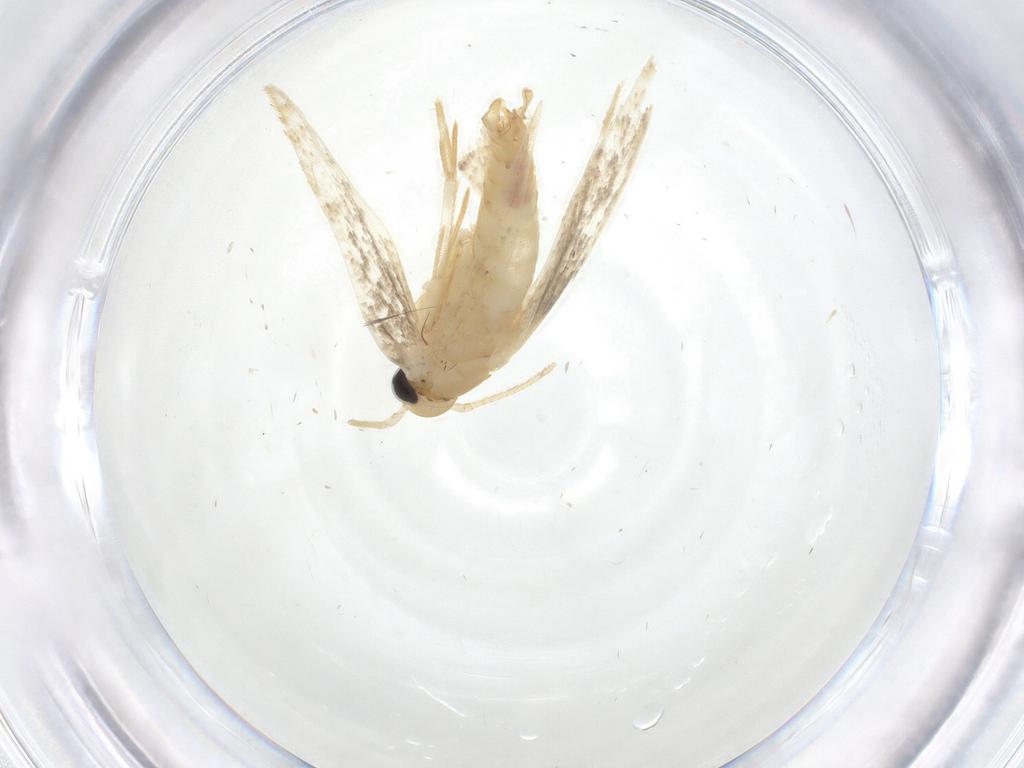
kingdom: Animalia
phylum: Arthropoda
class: Insecta
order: Lepidoptera
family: Erebidae
